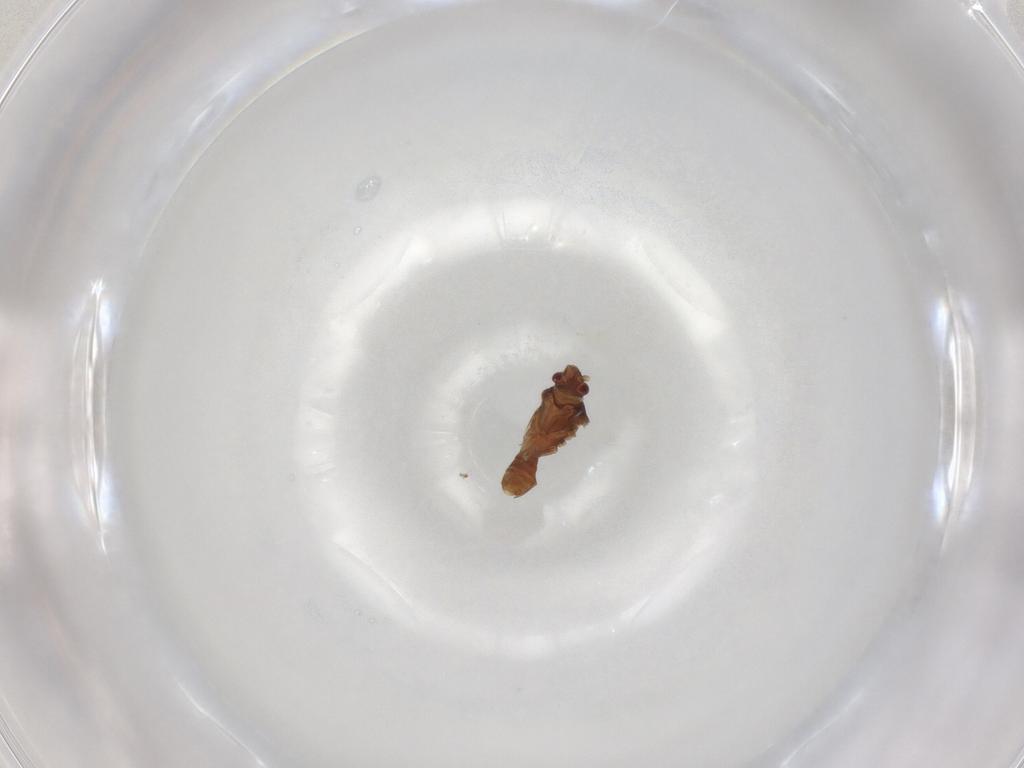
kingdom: Animalia
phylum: Arthropoda
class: Insecta
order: Hemiptera
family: Ceratocombidae
